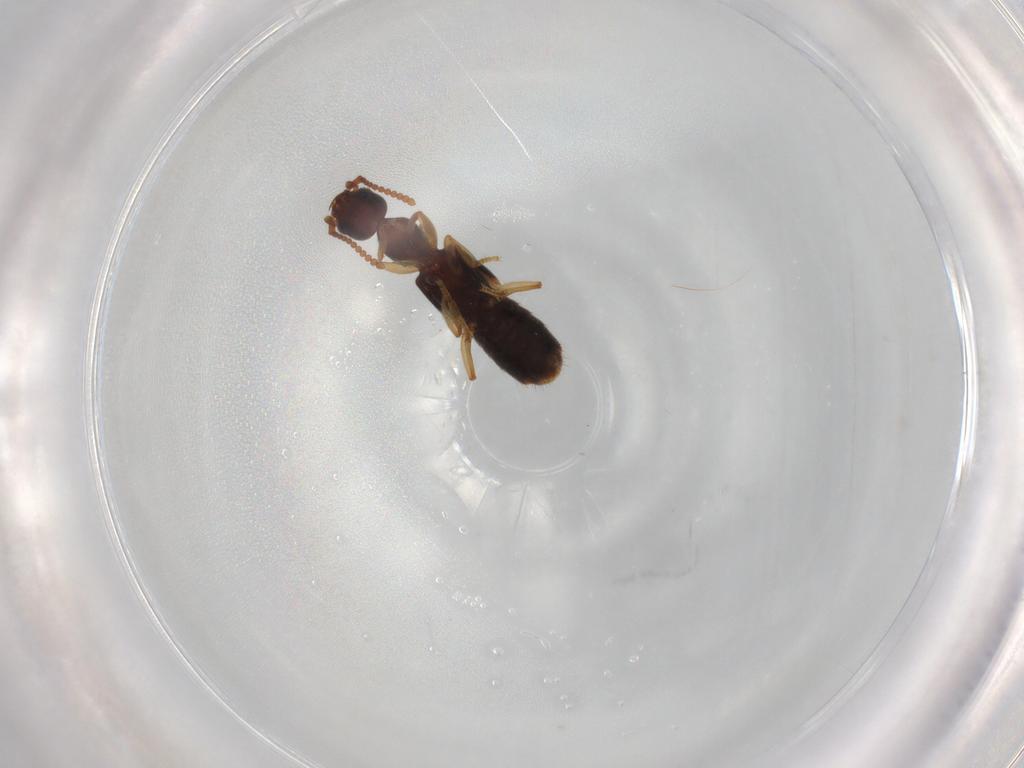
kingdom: Animalia
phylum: Arthropoda
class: Insecta
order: Coleoptera
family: Staphylinidae
